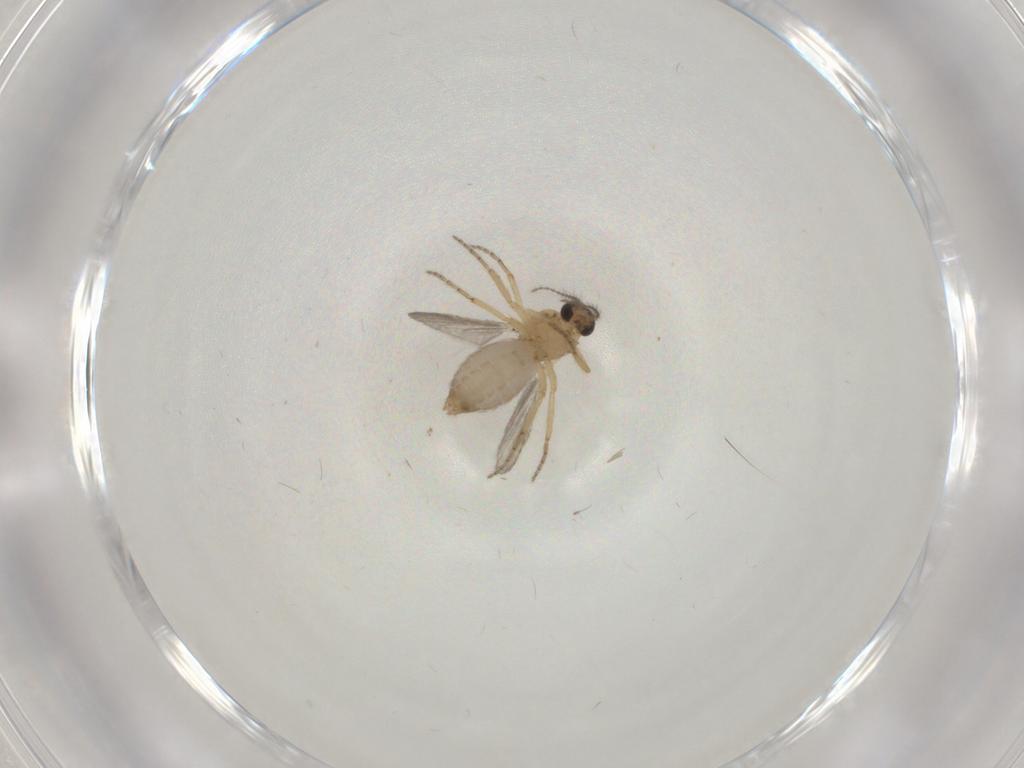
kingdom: Animalia
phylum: Arthropoda
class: Insecta
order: Diptera
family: Ceratopogonidae
